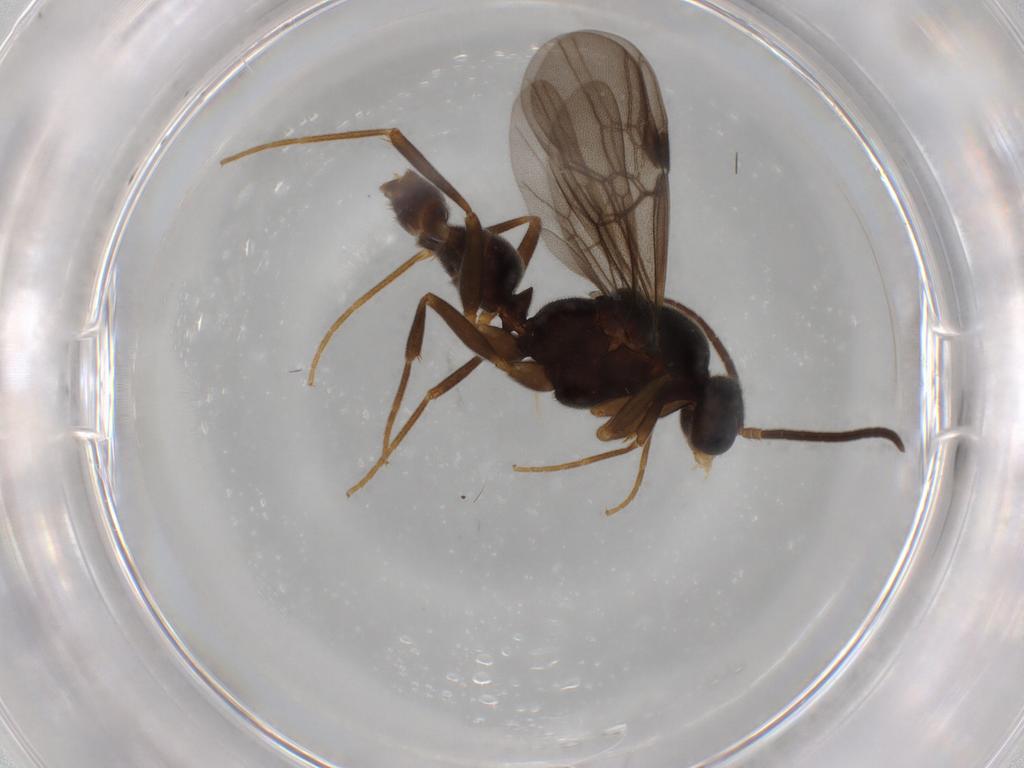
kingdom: Animalia
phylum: Arthropoda
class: Insecta
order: Hymenoptera
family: Formicidae
